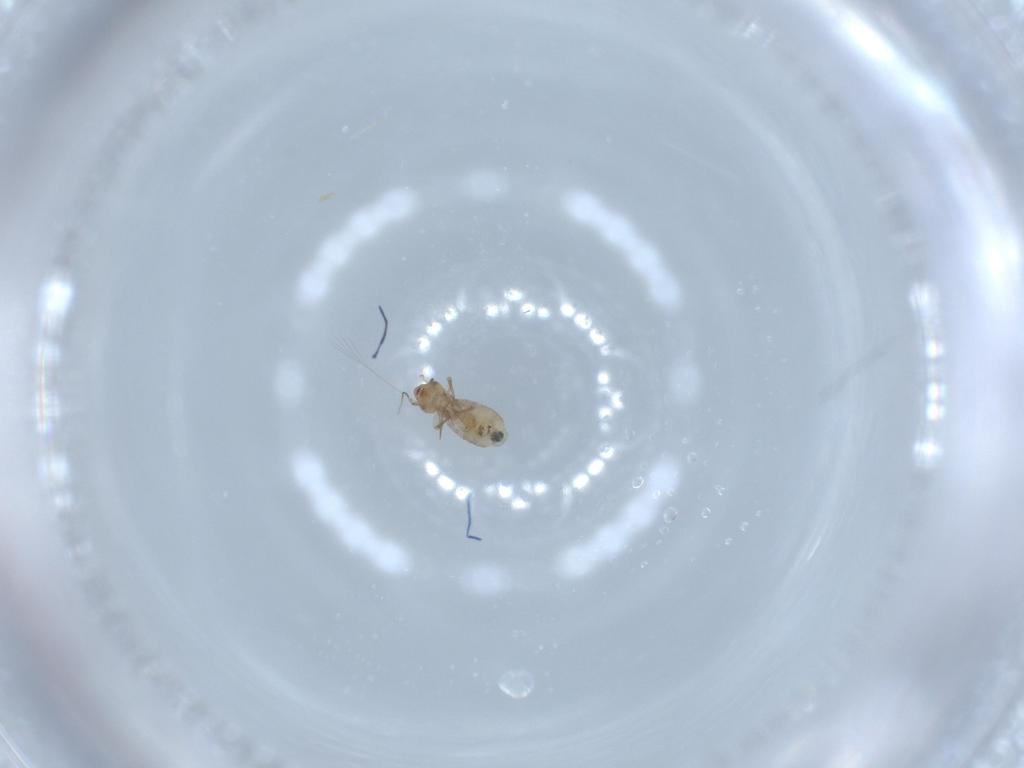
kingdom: Animalia
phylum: Arthropoda
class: Insecta
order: Psocodea
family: Liposcelididae
